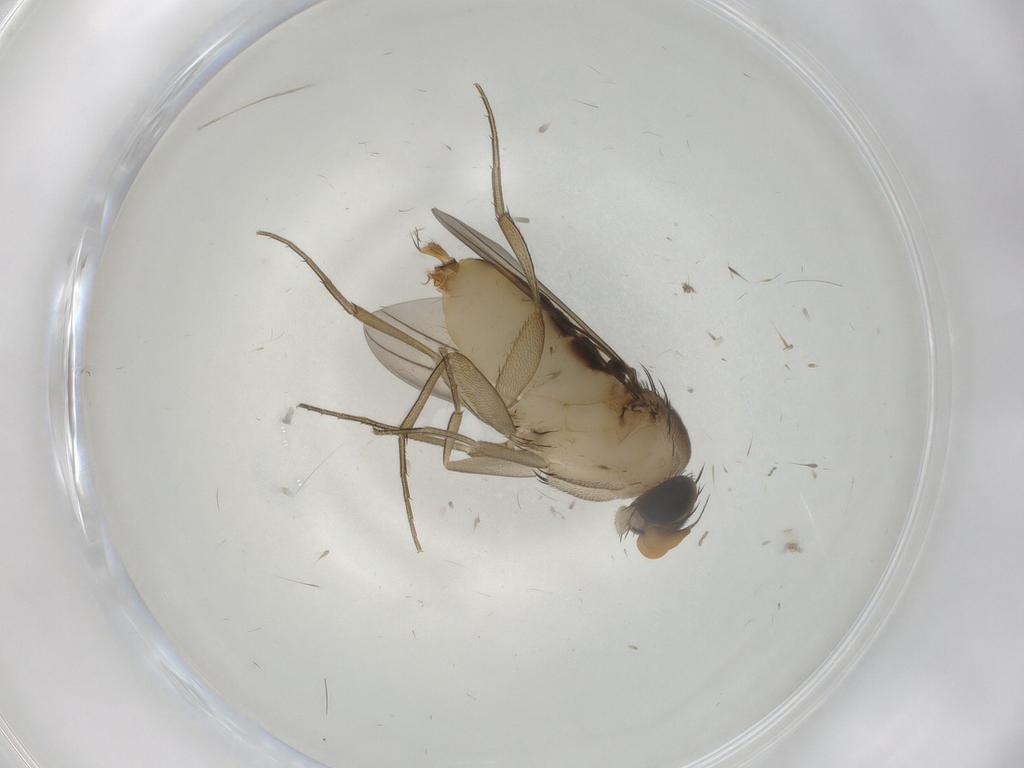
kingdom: Animalia
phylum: Arthropoda
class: Insecta
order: Diptera
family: Phoridae
